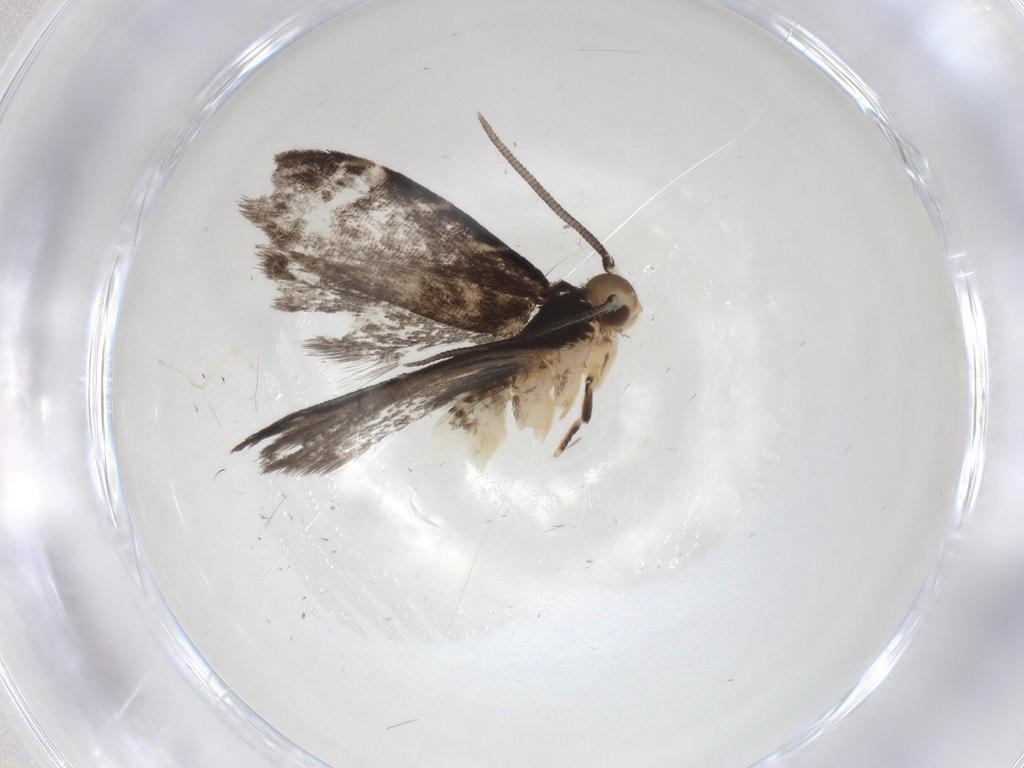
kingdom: Animalia
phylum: Arthropoda
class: Insecta
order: Lepidoptera
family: Dryadaulidae
